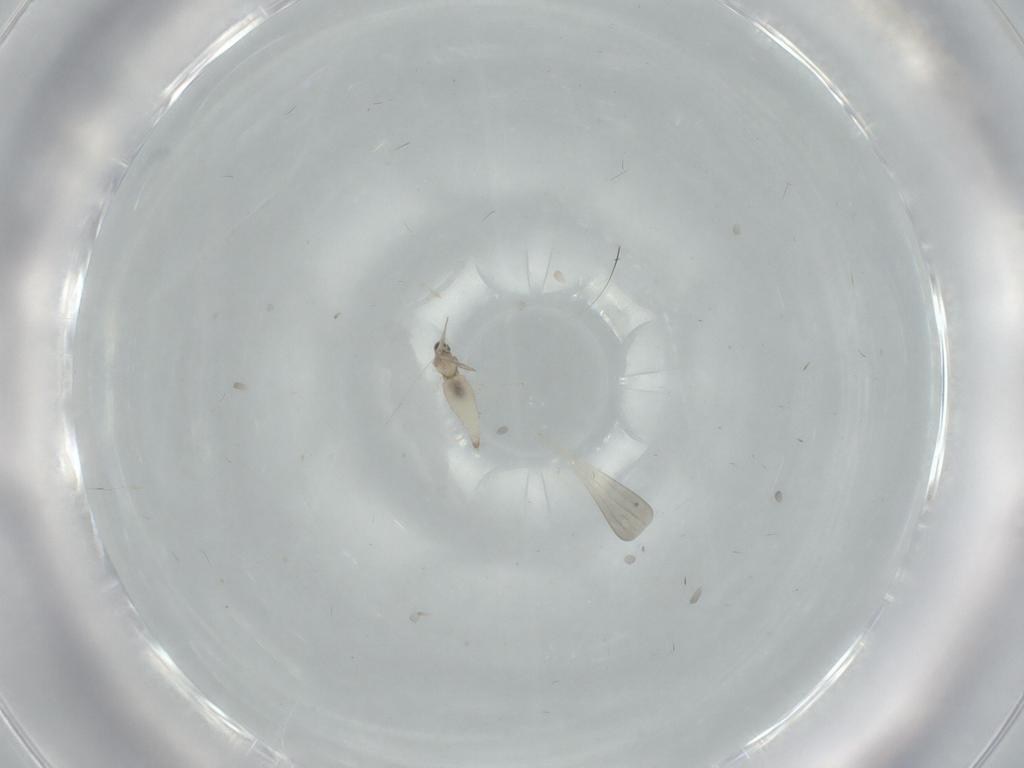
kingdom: Animalia
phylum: Arthropoda
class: Insecta
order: Diptera
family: Cecidomyiidae
